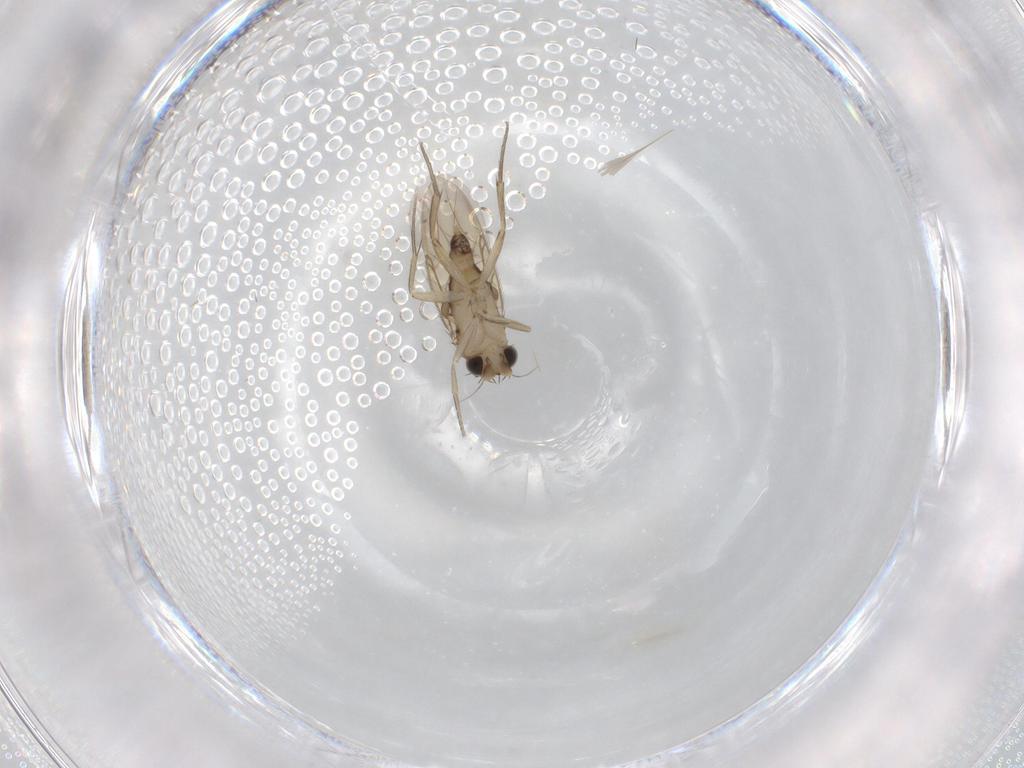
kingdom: Animalia
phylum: Arthropoda
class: Insecta
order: Diptera
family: Phoridae
